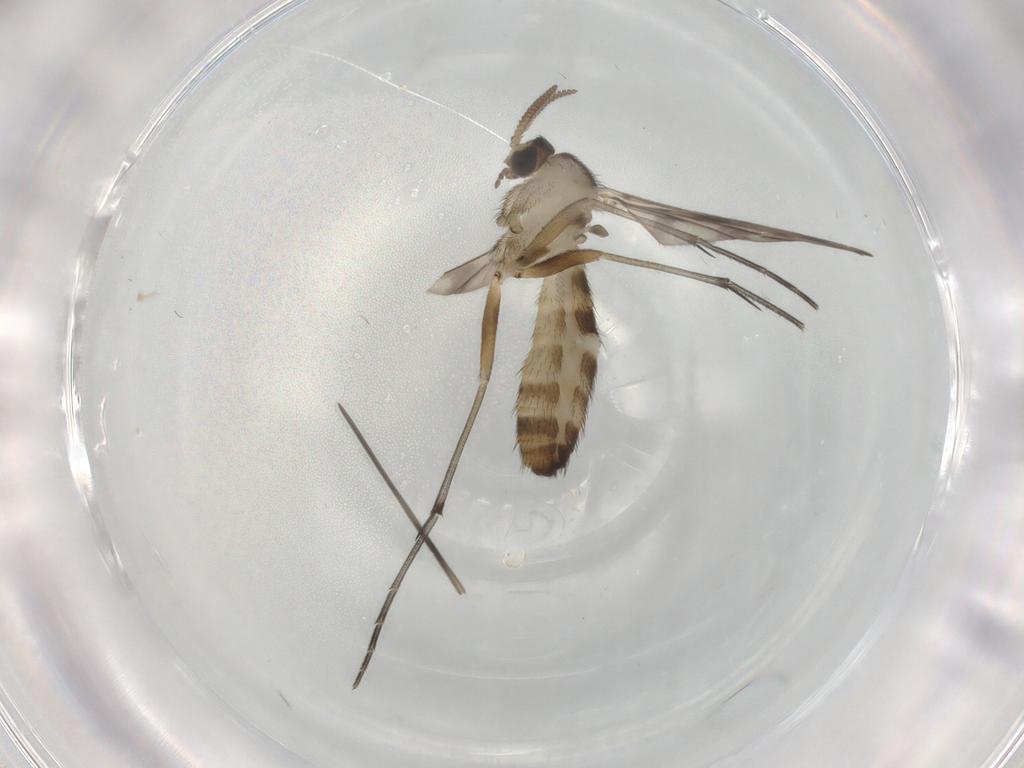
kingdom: Animalia
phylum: Arthropoda
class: Insecta
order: Diptera
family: Keroplatidae
